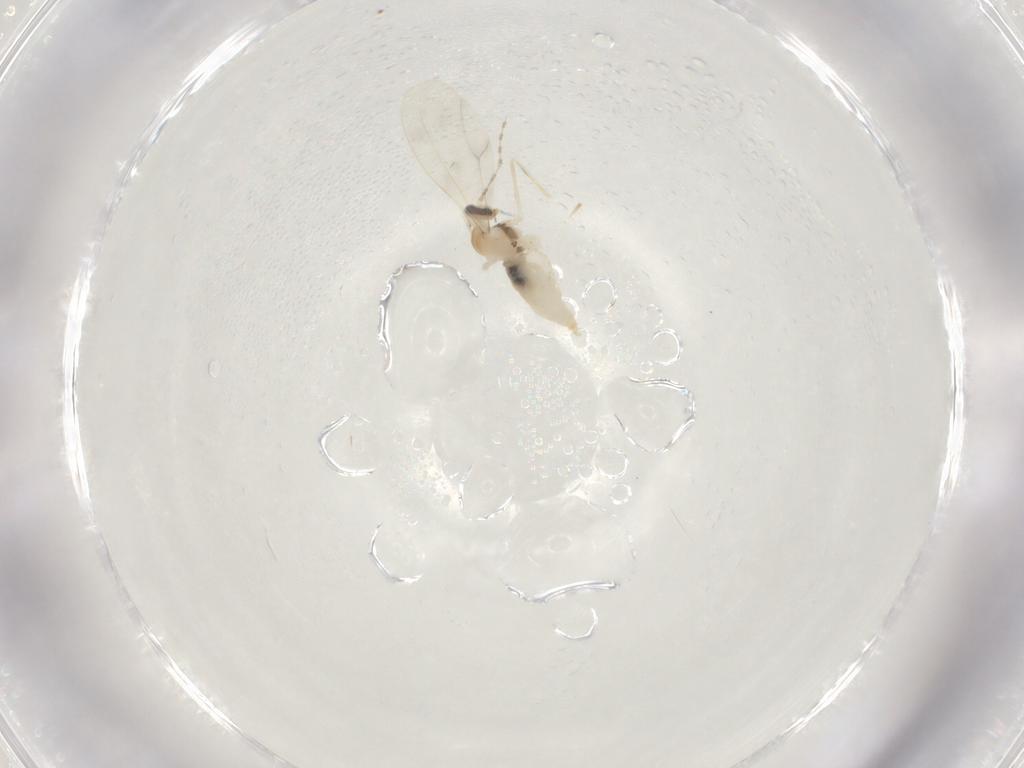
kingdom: Animalia
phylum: Arthropoda
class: Insecta
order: Diptera
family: Cecidomyiidae
